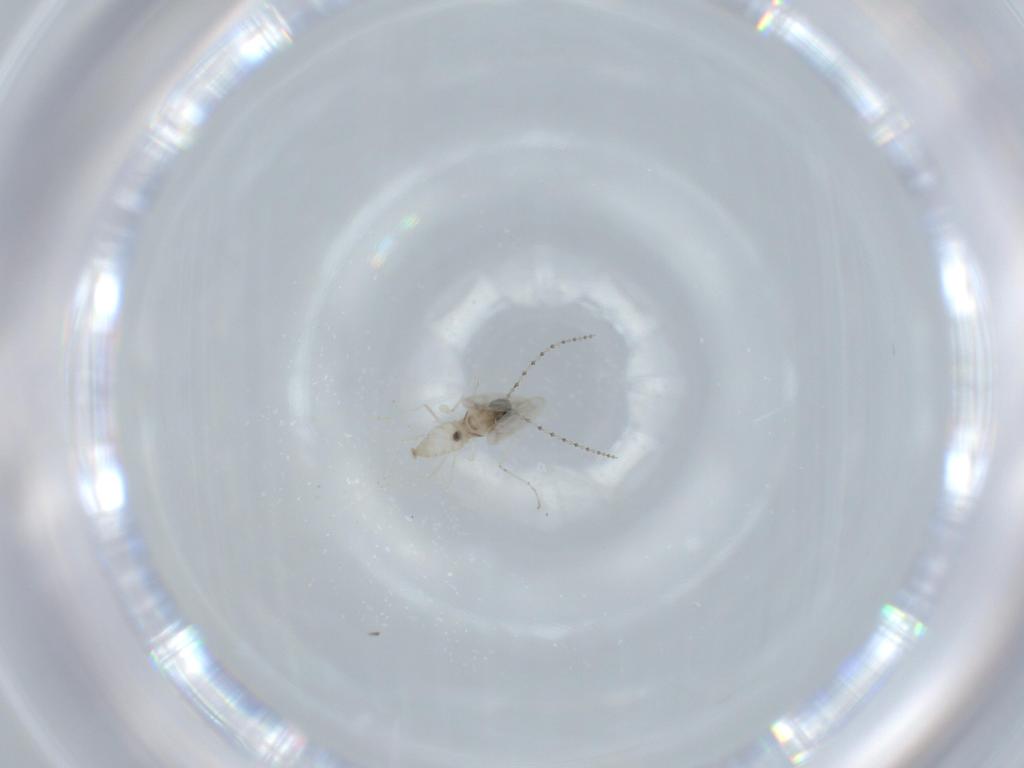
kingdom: Animalia
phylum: Arthropoda
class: Insecta
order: Diptera
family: Cecidomyiidae
